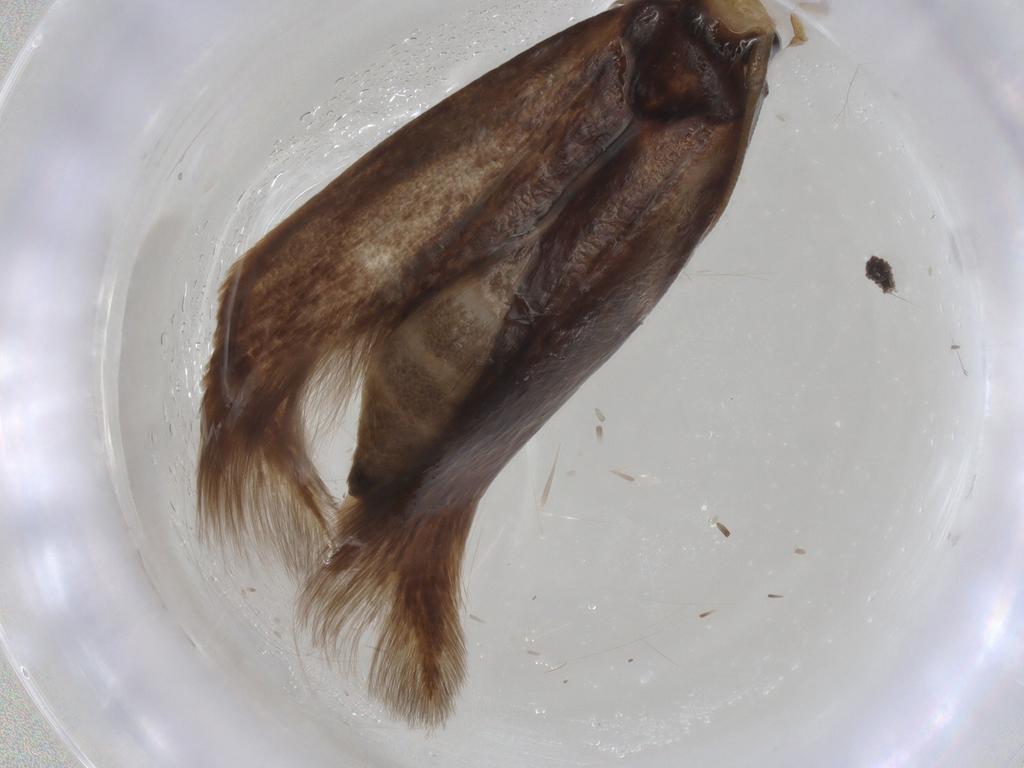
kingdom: Animalia
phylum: Arthropoda
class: Insecta
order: Lepidoptera
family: Tineidae
